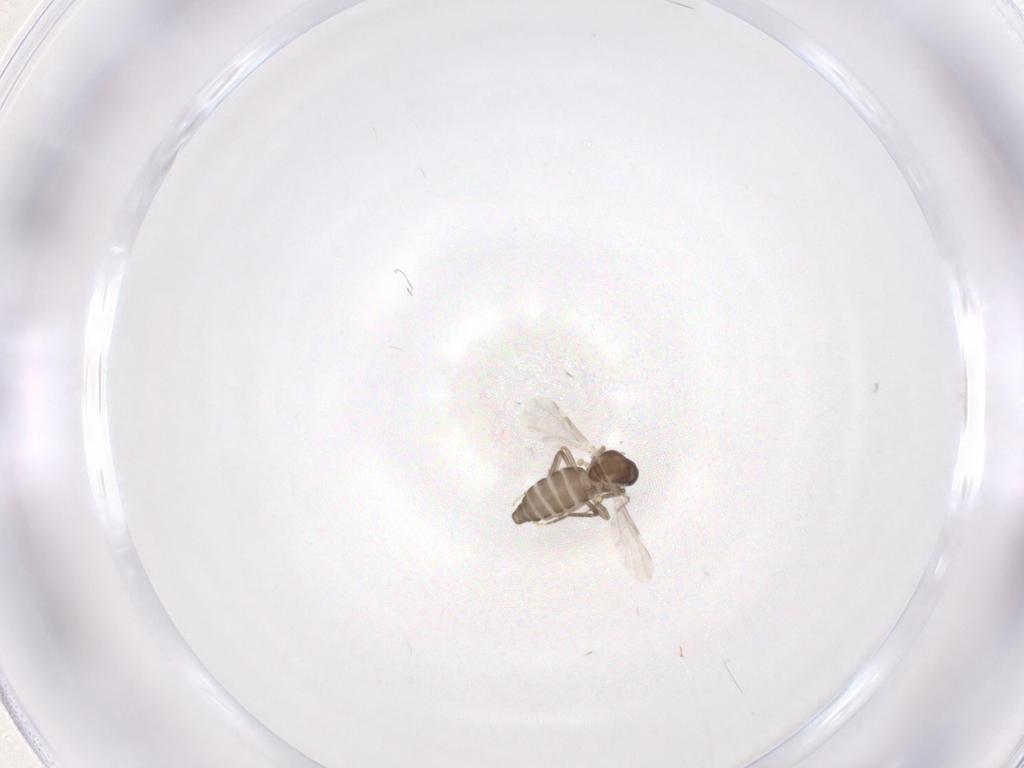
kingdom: Animalia
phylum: Arthropoda
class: Insecta
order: Diptera
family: Ceratopogonidae
